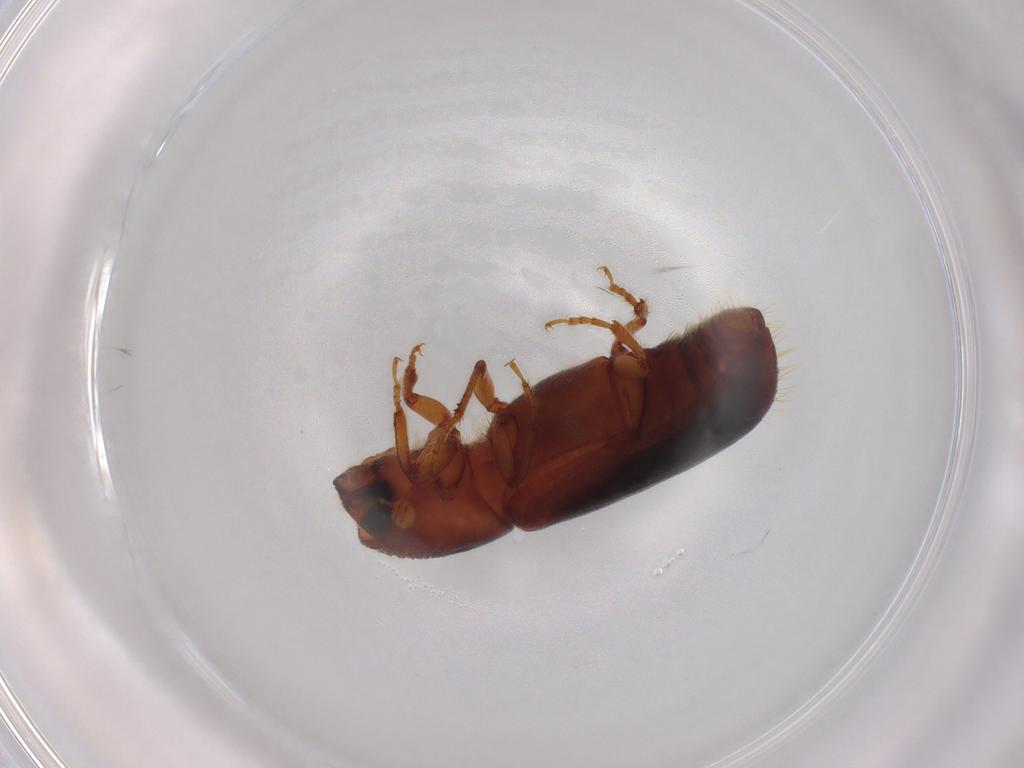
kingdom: Animalia
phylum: Arthropoda
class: Insecta
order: Coleoptera
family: Curculionidae
